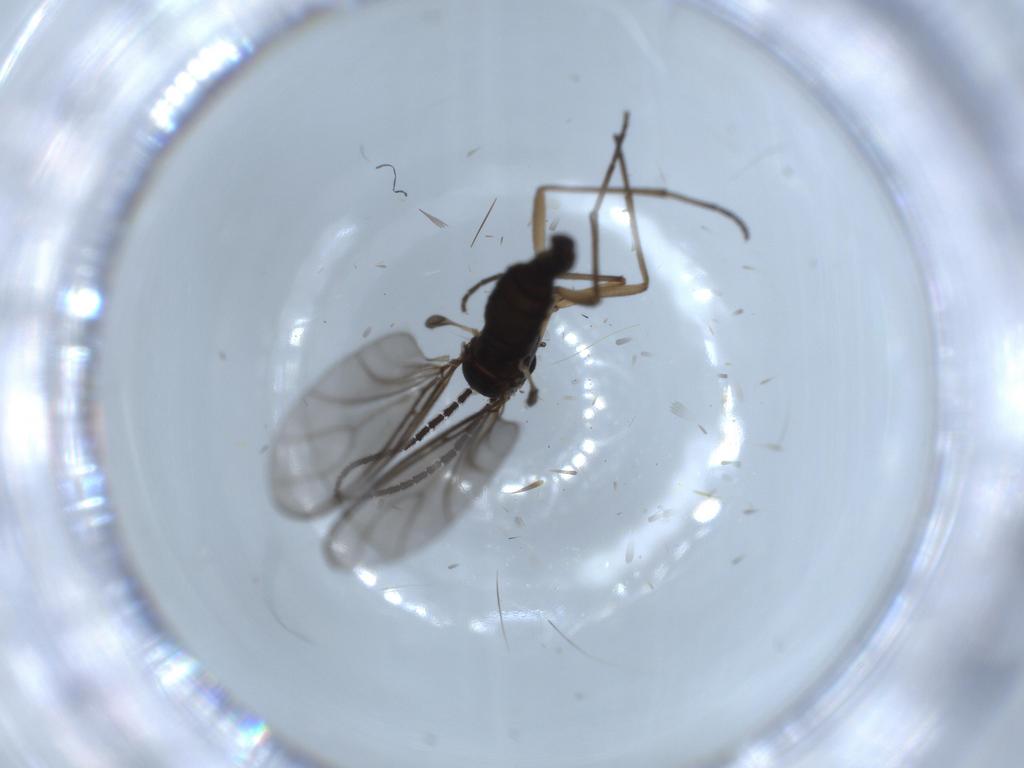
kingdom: Animalia
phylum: Arthropoda
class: Insecta
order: Diptera
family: Sciaridae
